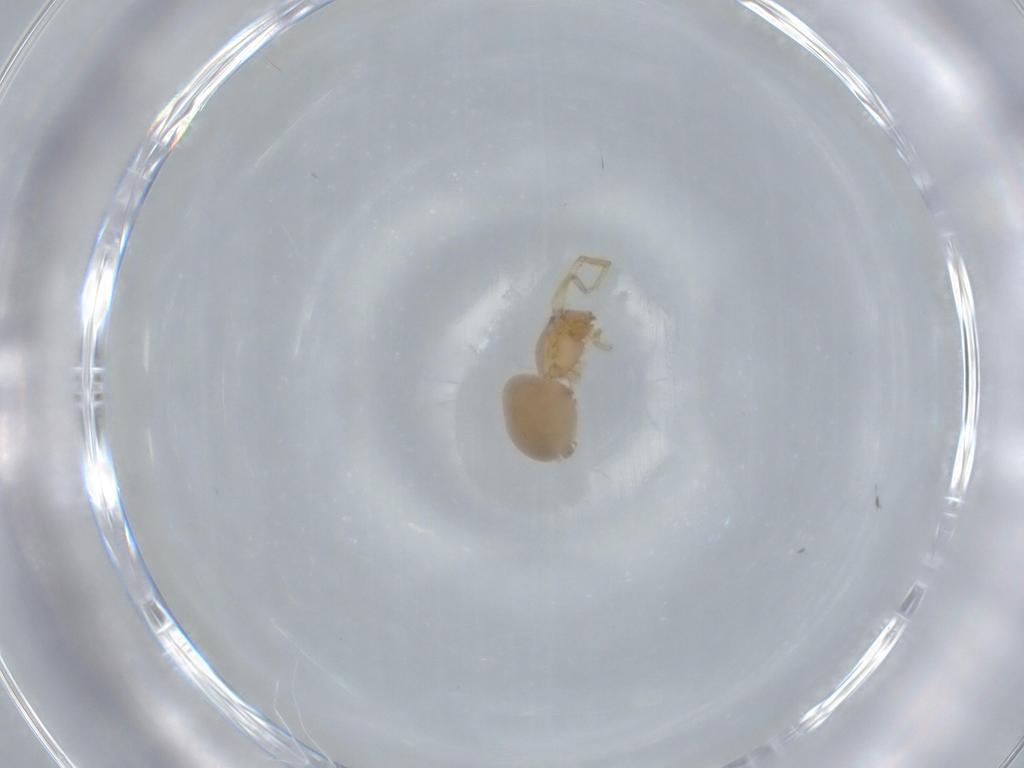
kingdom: Animalia
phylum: Arthropoda
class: Arachnida
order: Araneae
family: Oonopidae
